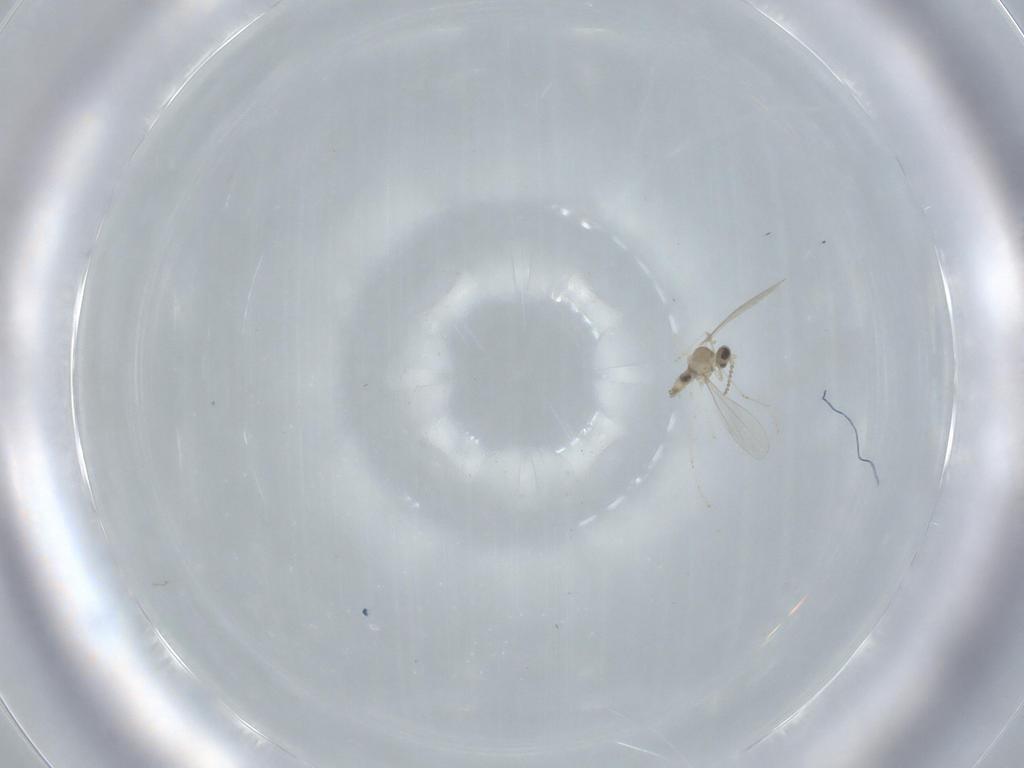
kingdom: Animalia
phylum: Arthropoda
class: Insecta
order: Diptera
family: Cecidomyiidae
